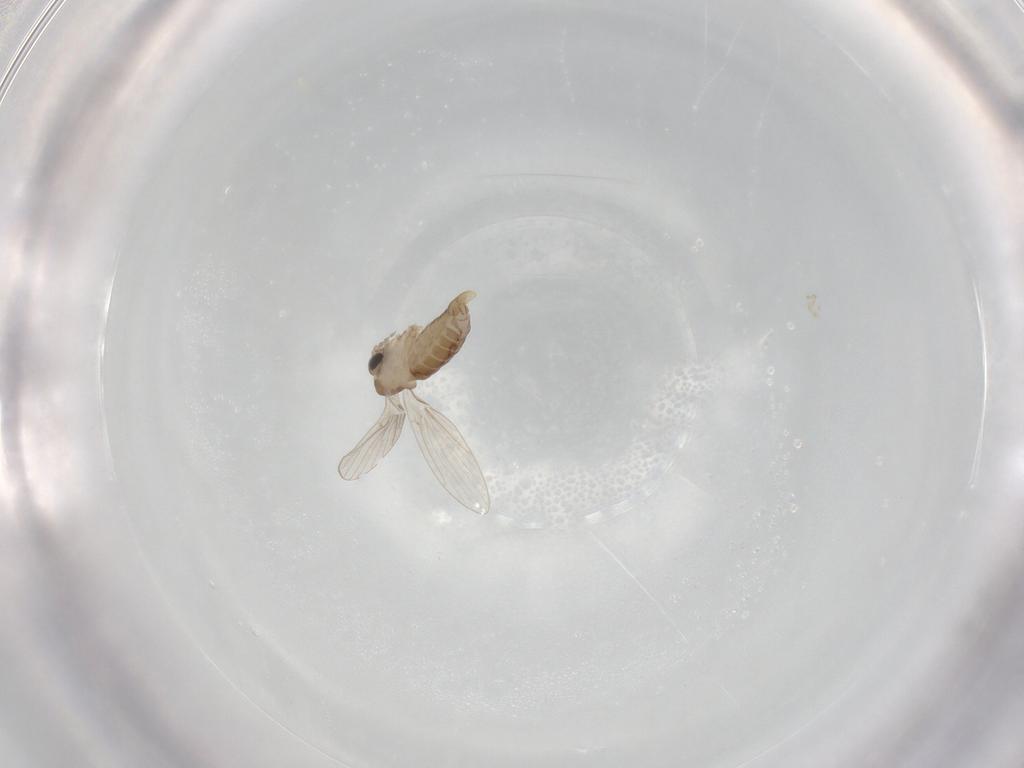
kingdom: Animalia
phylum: Arthropoda
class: Insecta
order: Diptera
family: Psychodidae
